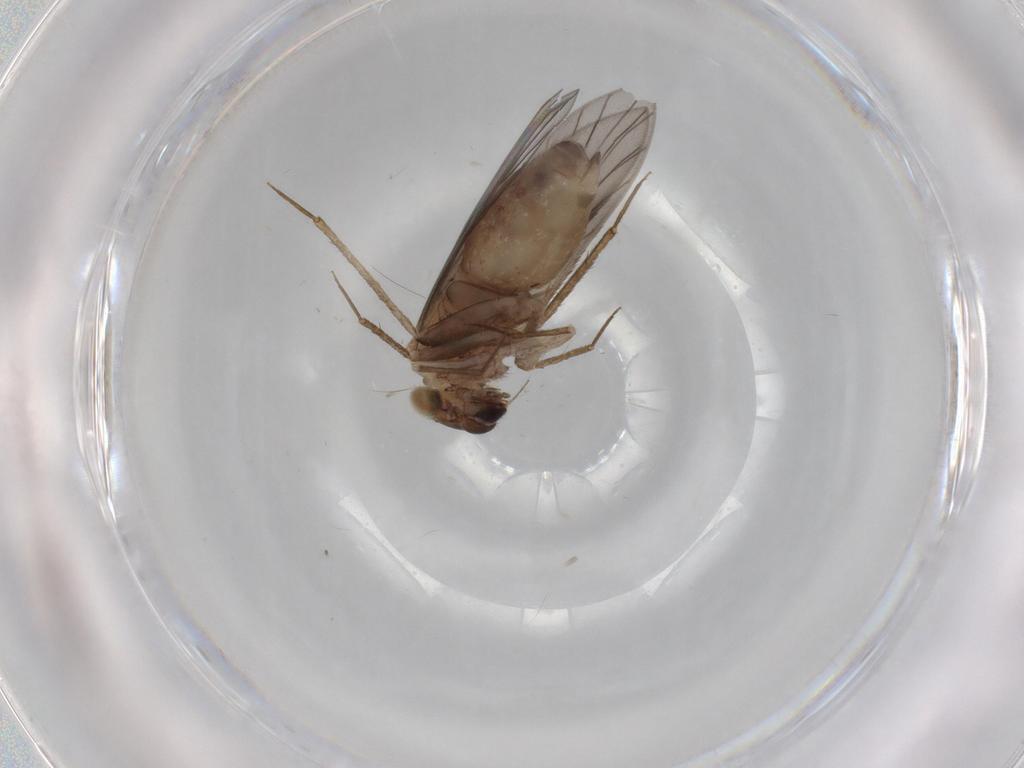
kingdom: Animalia
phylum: Arthropoda
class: Insecta
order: Psocodea
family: Lepidopsocidae
